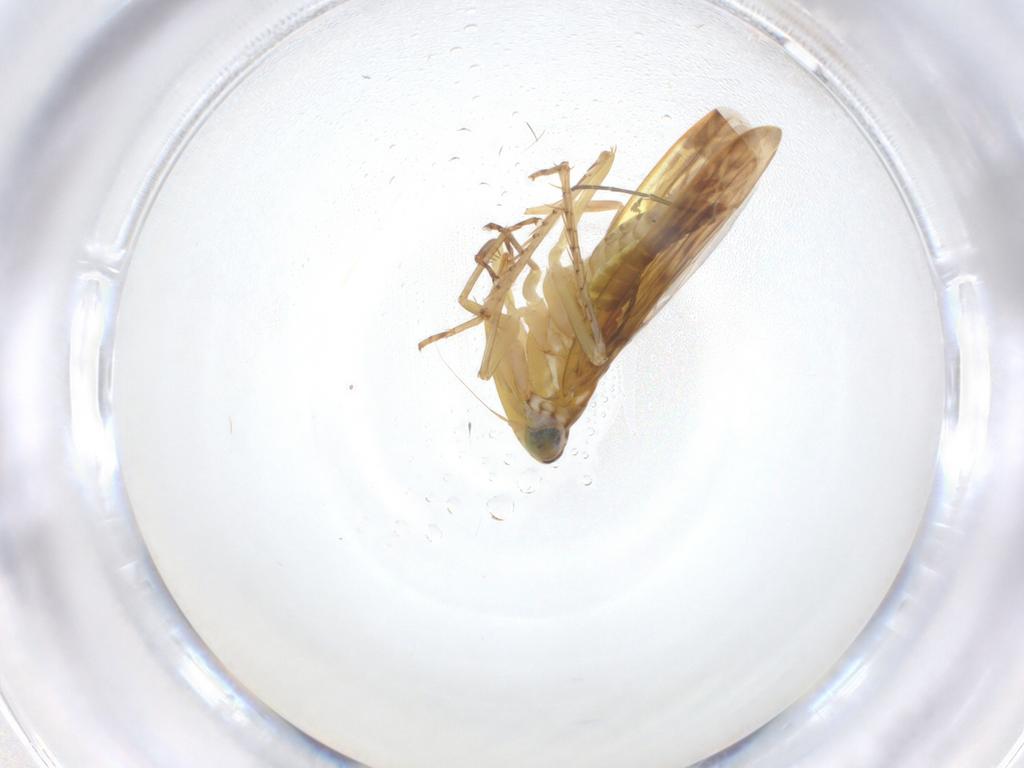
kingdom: Animalia
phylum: Arthropoda
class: Insecta
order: Hemiptera
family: Cicadellidae
